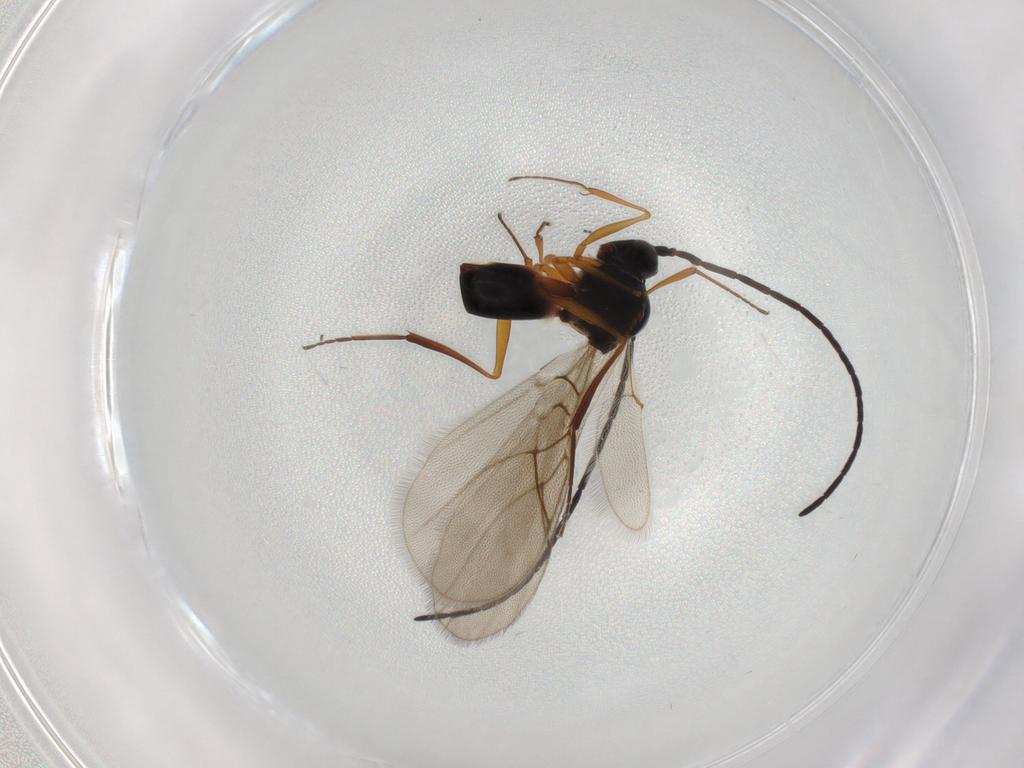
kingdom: Animalia
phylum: Arthropoda
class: Insecta
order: Hymenoptera
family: Figitidae
